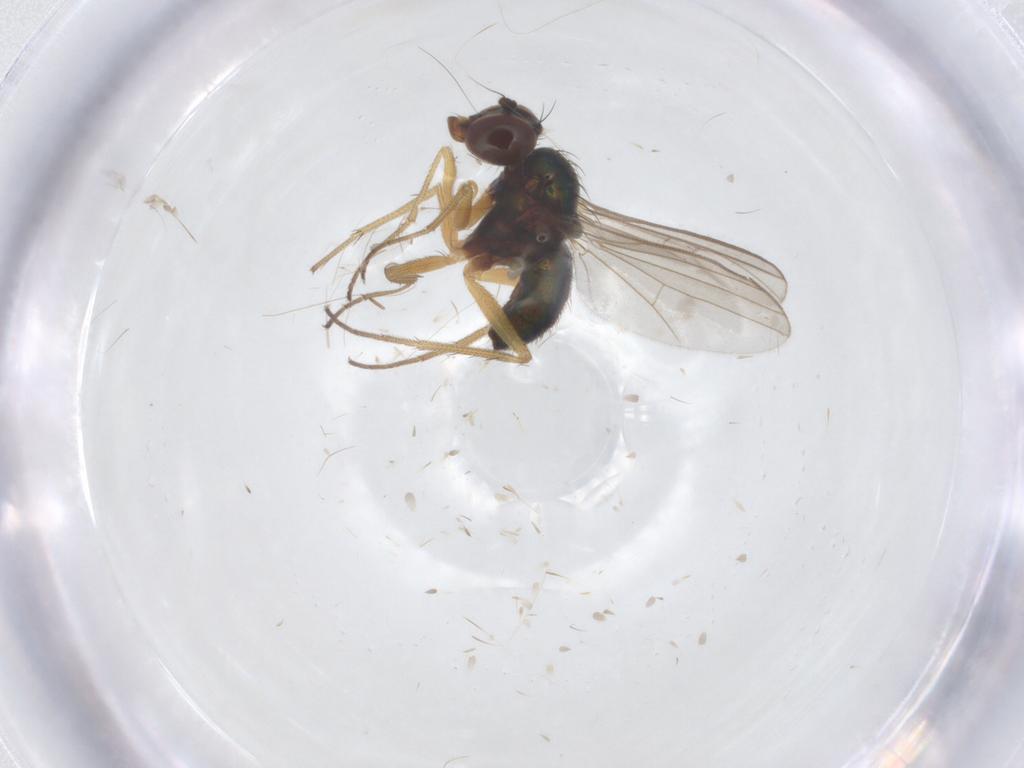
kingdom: Animalia
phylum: Arthropoda
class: Insecta
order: Diptera
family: Dolichopodidae
